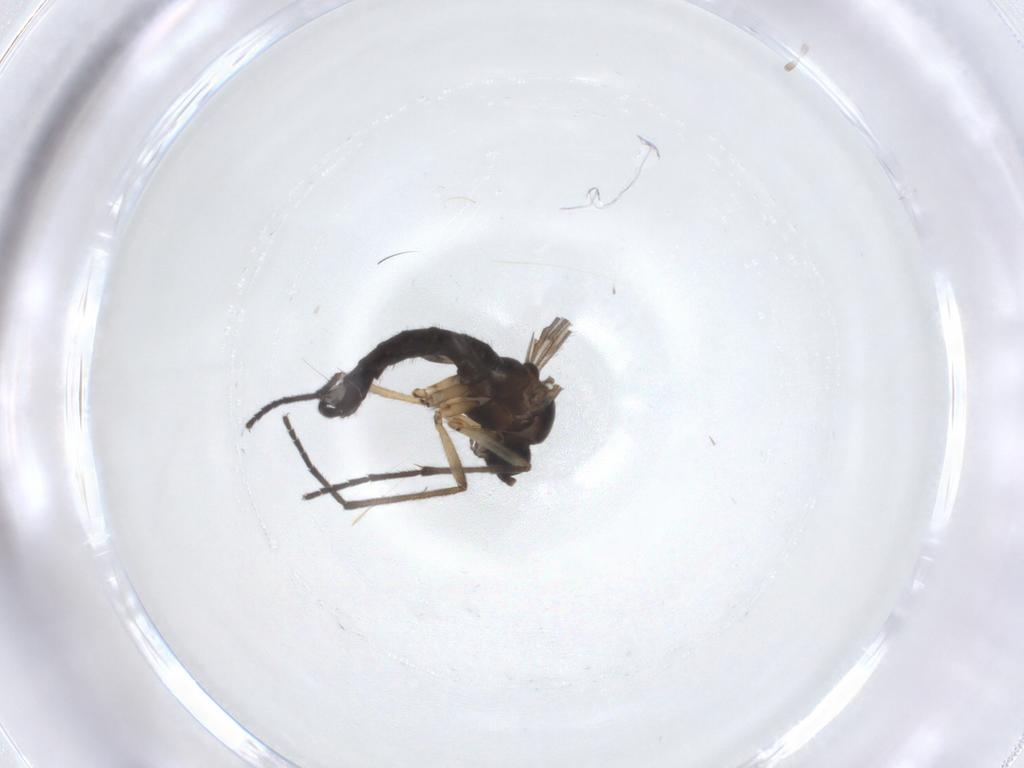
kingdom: Animalia
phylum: Arthropoda
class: Insecta
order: Diptera
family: Sciaridae
